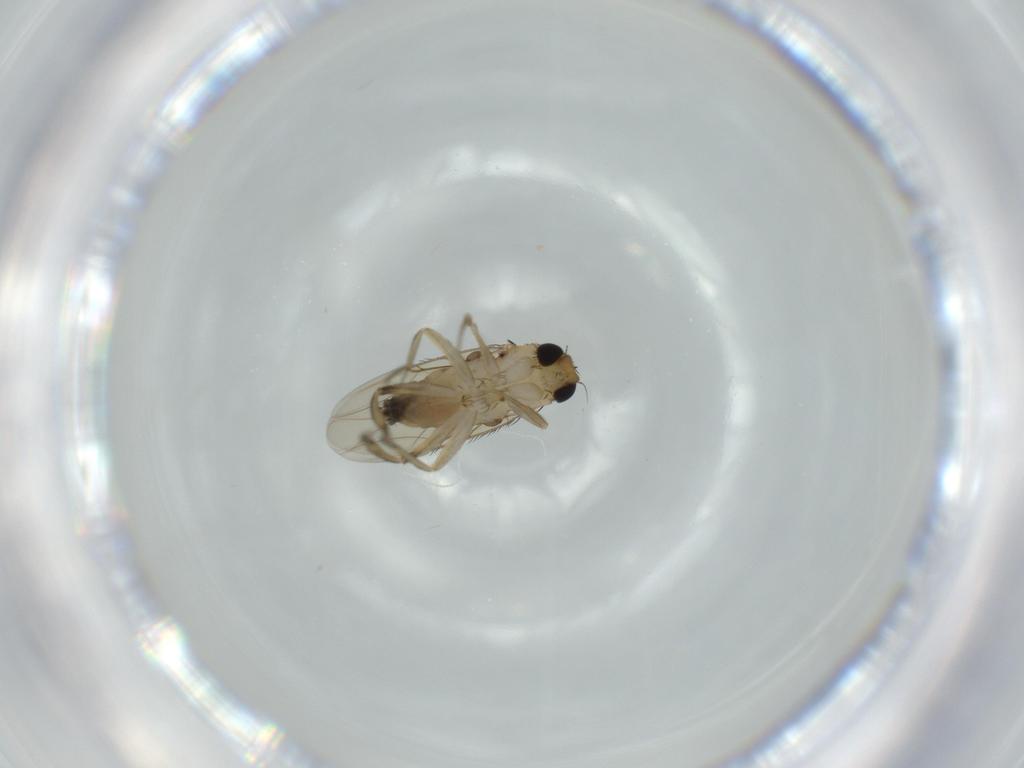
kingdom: Animalia
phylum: Arthropoda
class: Insecta
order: Diptera
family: Phoridae
